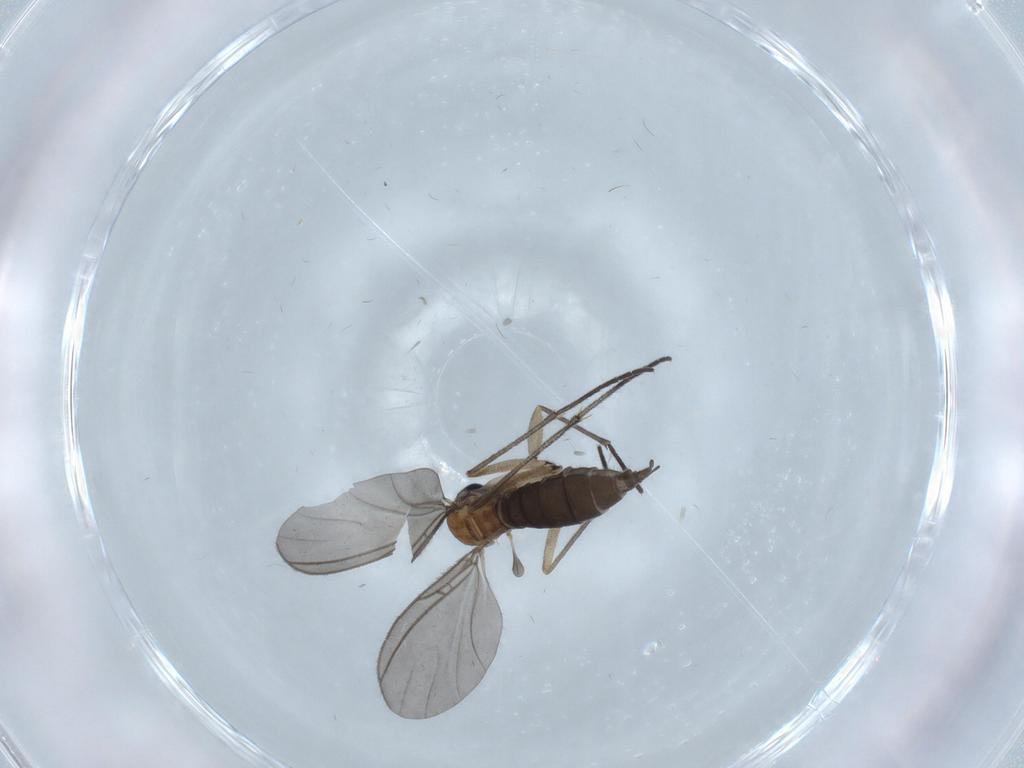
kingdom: Animalia
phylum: Arthropoda
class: Insecta
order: Diptera
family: Sciaridae
